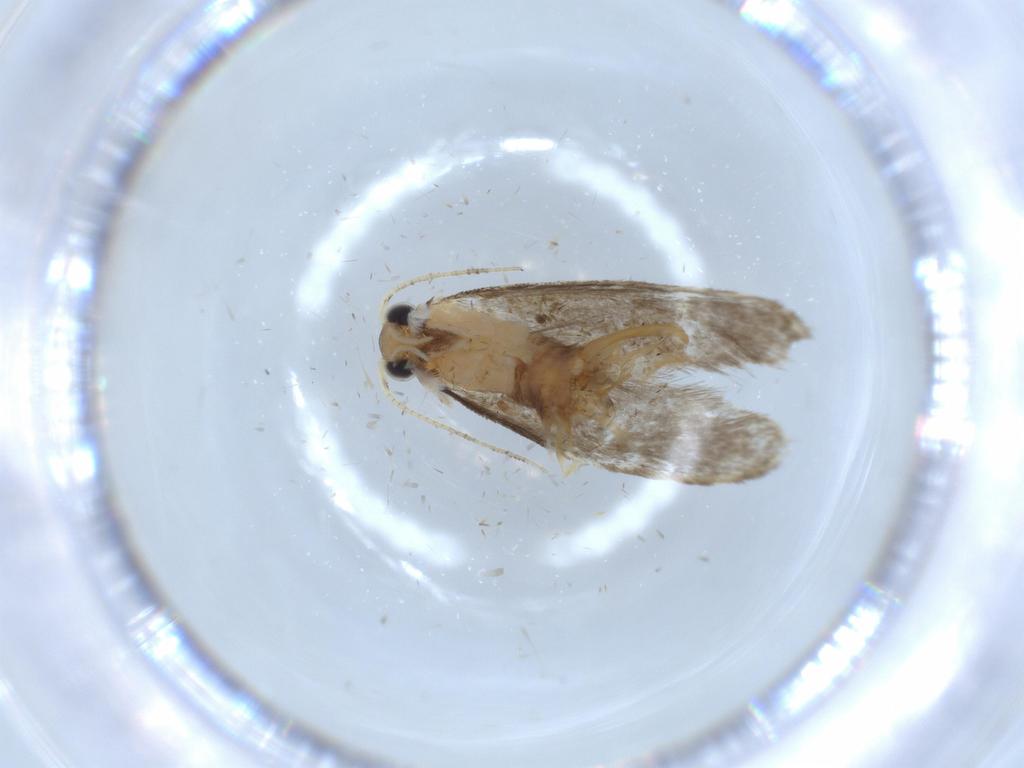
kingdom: Animalia
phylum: Arthropoda
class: Insecta
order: Lepidoptera
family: Tineidae
